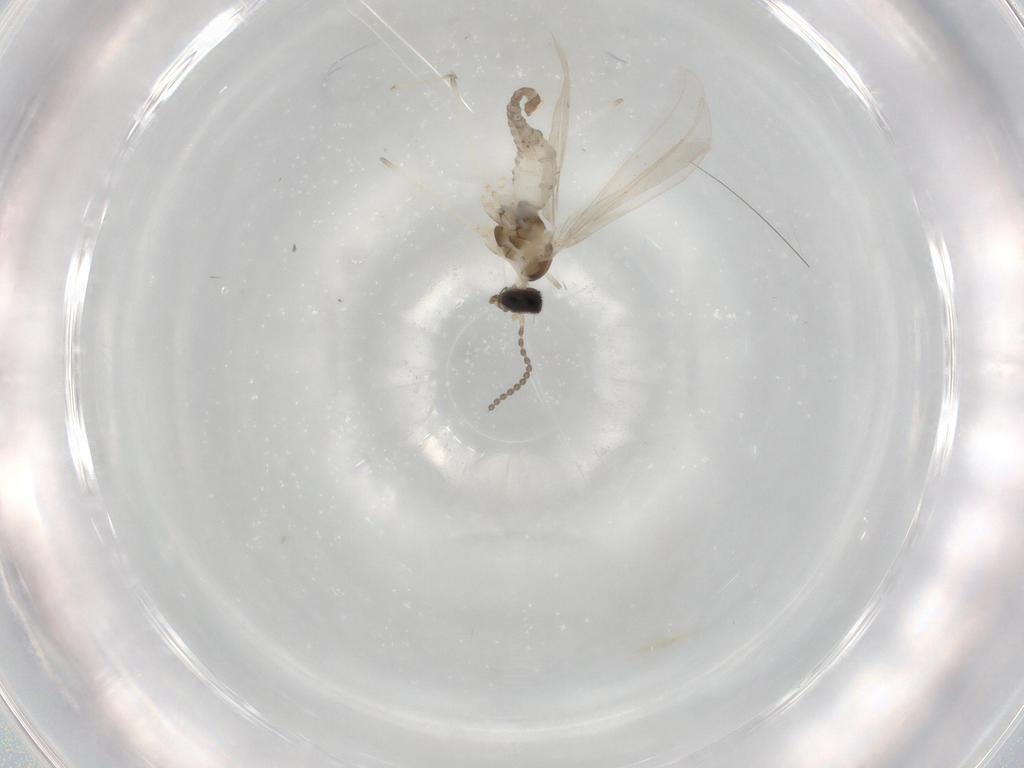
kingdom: Animalia
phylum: Arthropoda
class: Insecta
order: Diptera
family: Cecidomyiidae
